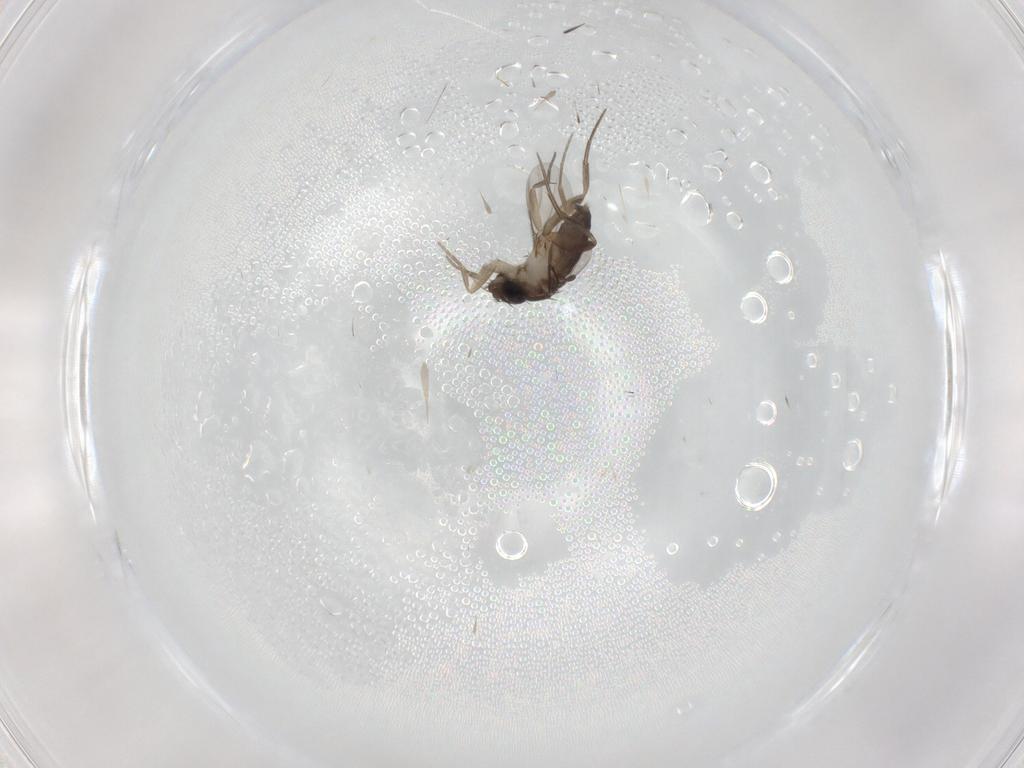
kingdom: Animalia
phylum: Arthropoda
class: Insecta
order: Diptera
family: Phoridae
